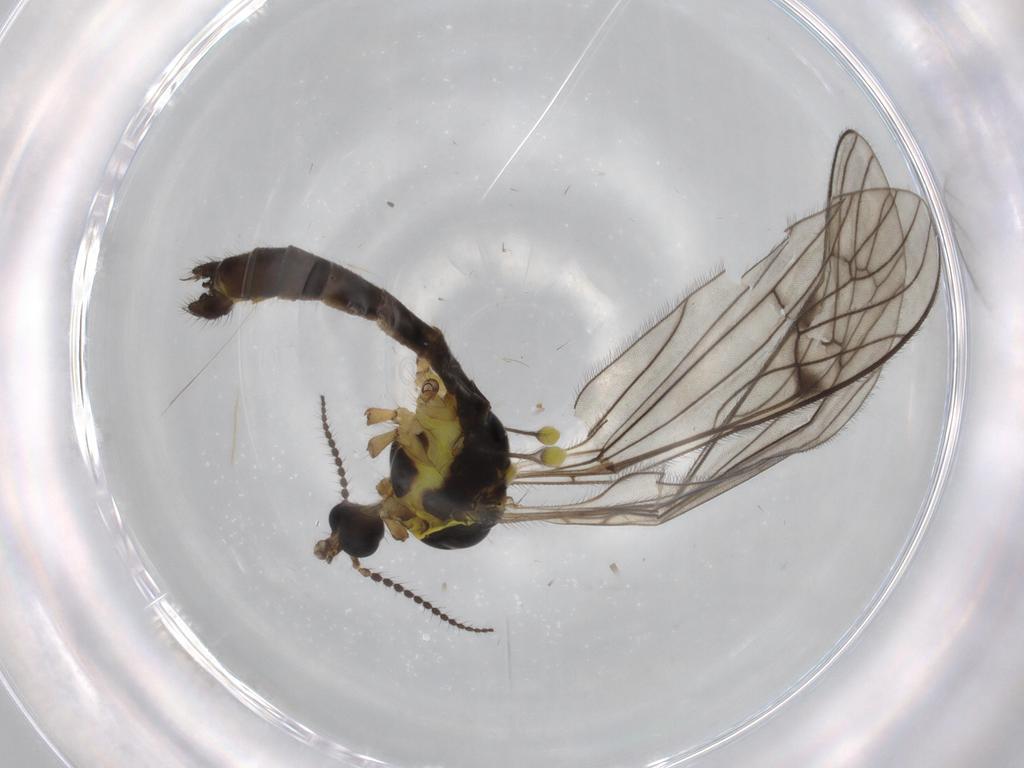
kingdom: Animalia
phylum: Arthropoda
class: Insecta
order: Diptera
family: Limoniidae
